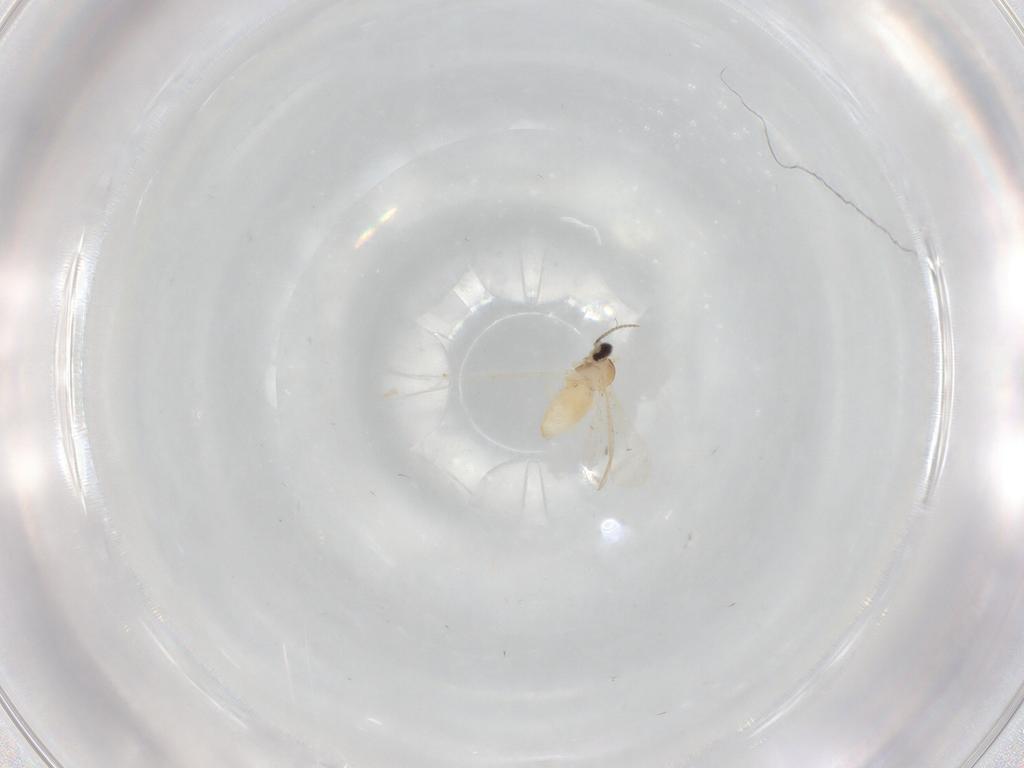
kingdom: Animalia
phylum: Arthropoda
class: Insecta
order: Diptera
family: Cecidomyiidae
